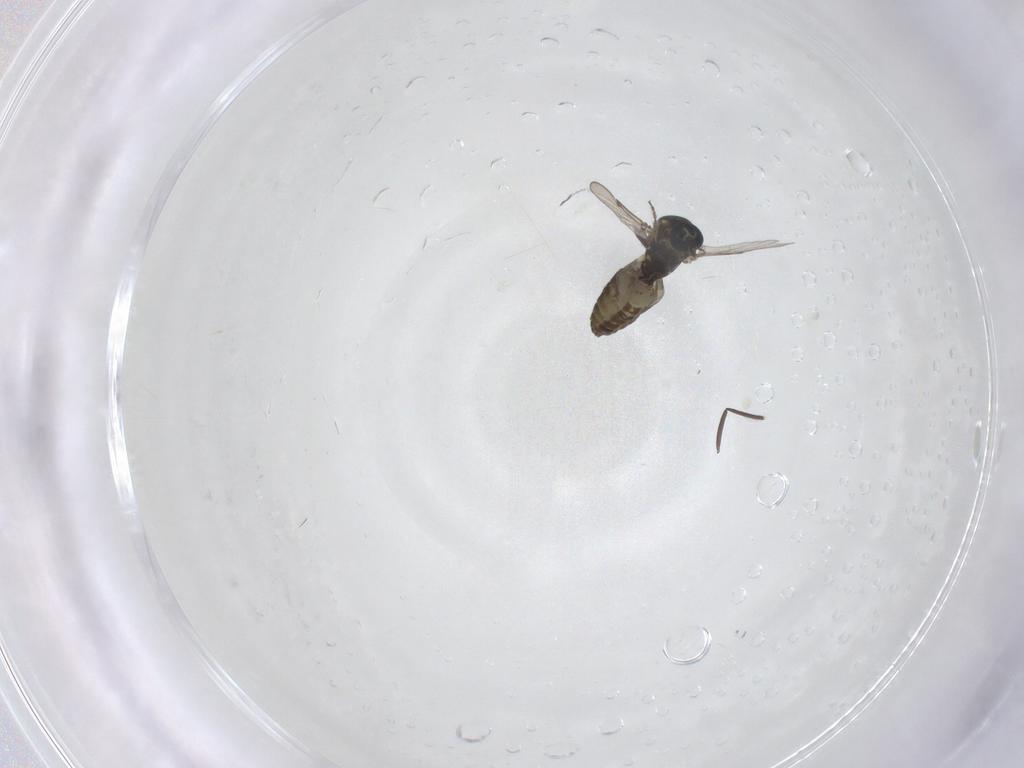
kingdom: Animalia
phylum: Arthropoda
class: Insecta
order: Diptera
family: Ceratopogonidae
